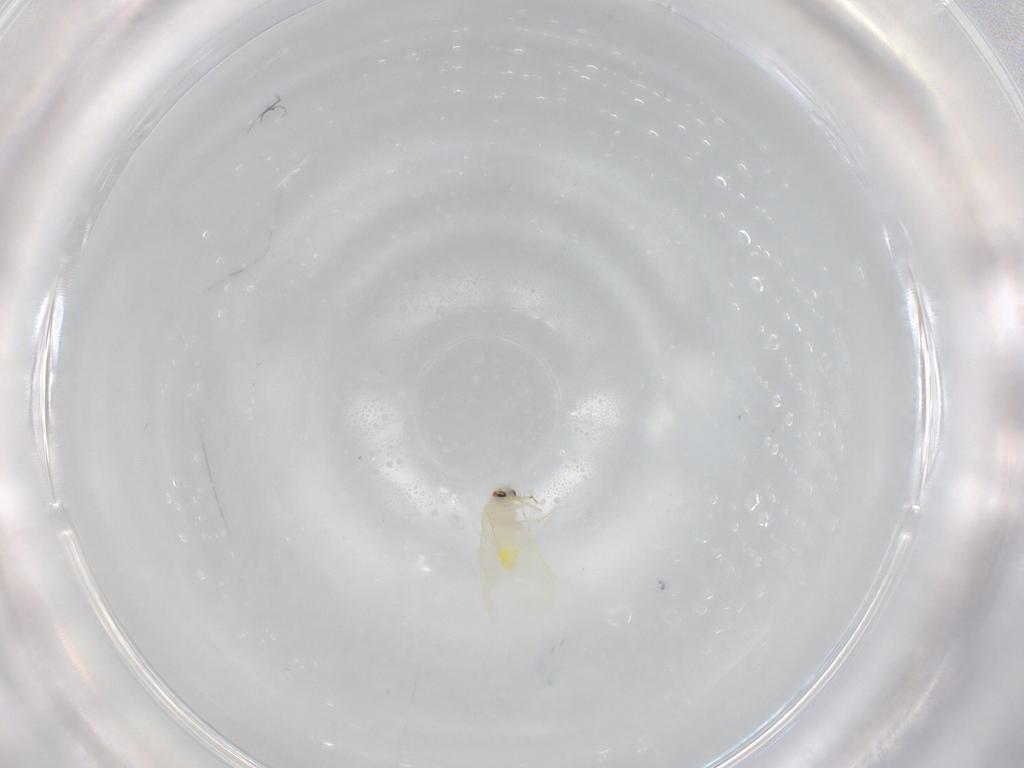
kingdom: Animalia
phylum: Arthropoda
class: Insecta
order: Hemiptera
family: Aleyrodidae
